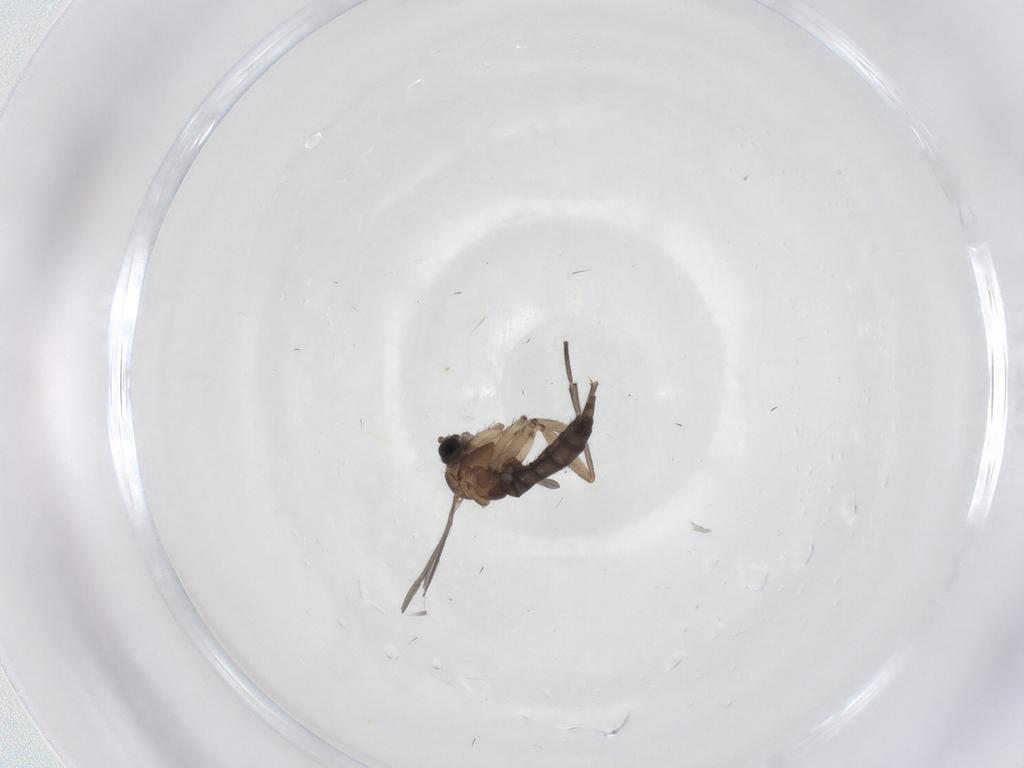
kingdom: Animalia
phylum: Arthropoda
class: Insecta
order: Diptera
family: Sciaridae
